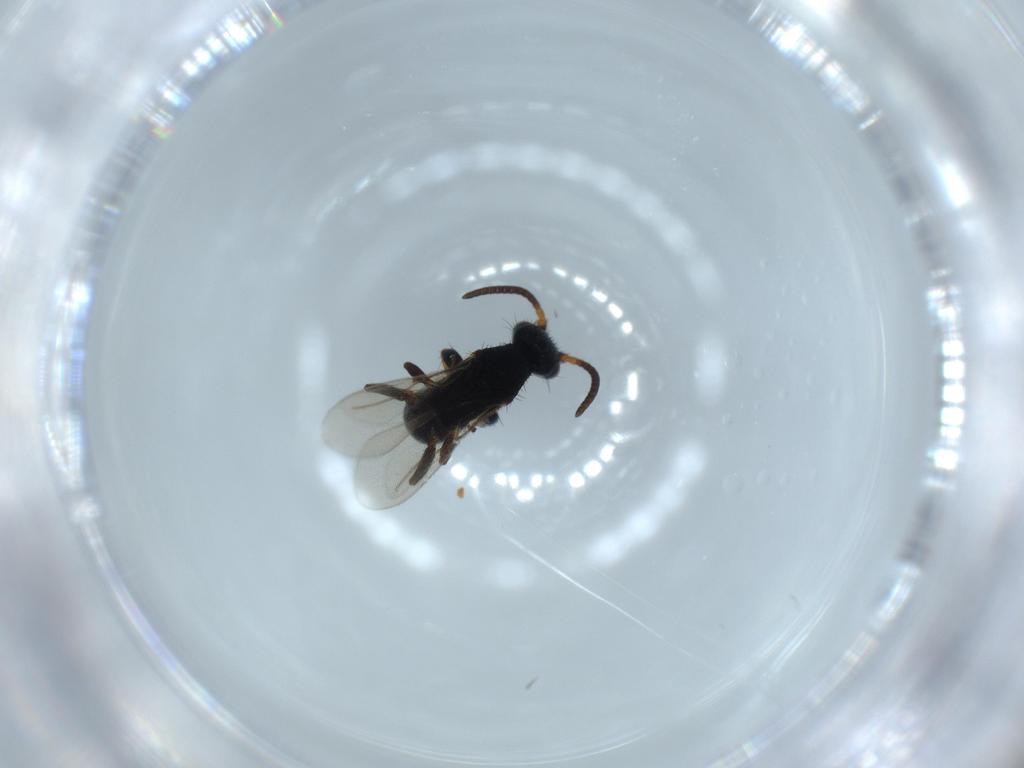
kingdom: Animalia
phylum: Arthropoda
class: Insecta
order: Hymenoptera
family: Bethylidae
